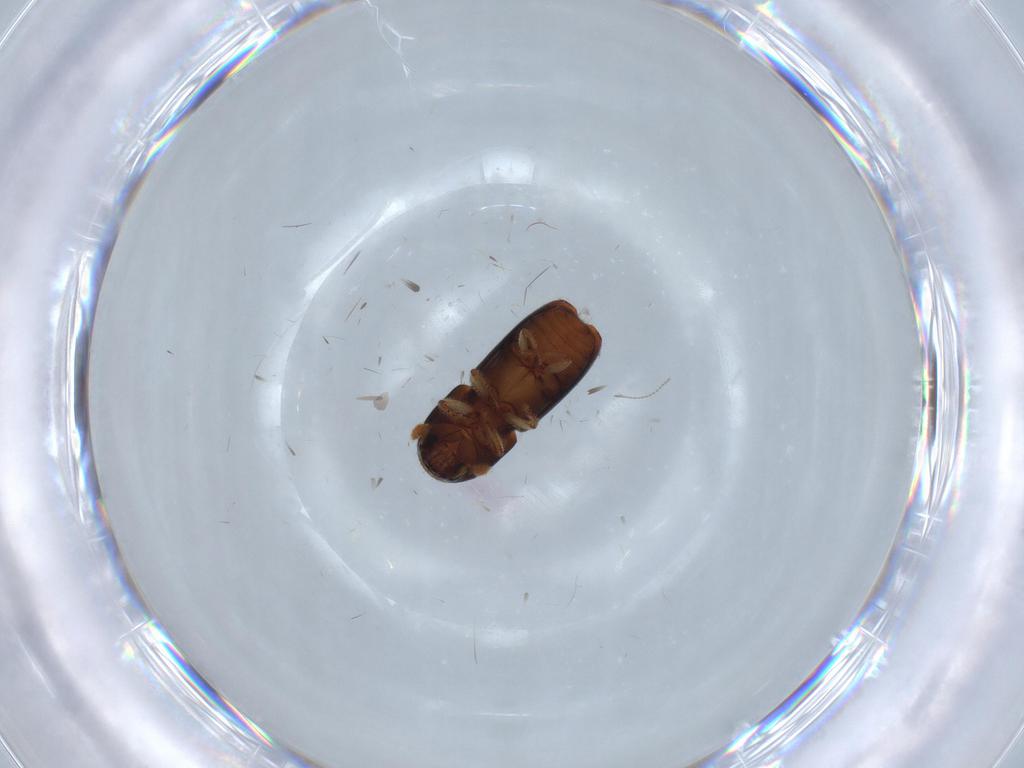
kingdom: Animalia
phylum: Arthropoda
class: Insecta
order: Coleoptera
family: Curculionidae
